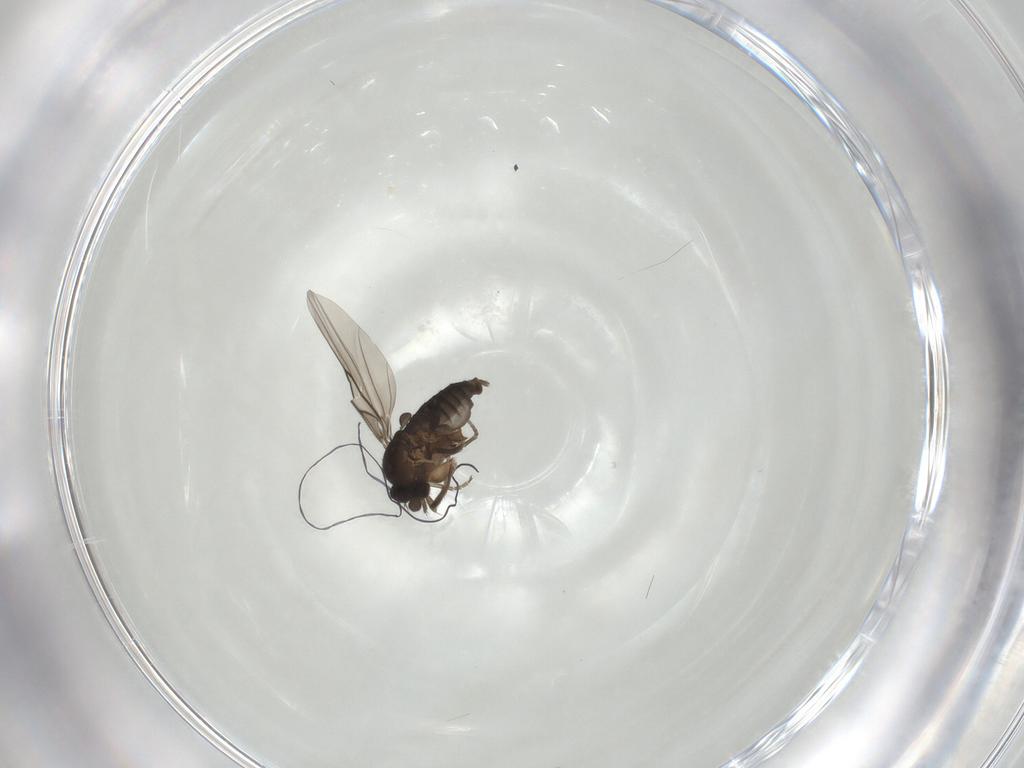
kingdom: Animalia
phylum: Arthropoda
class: Insecta
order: Diptera
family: Phoridae
